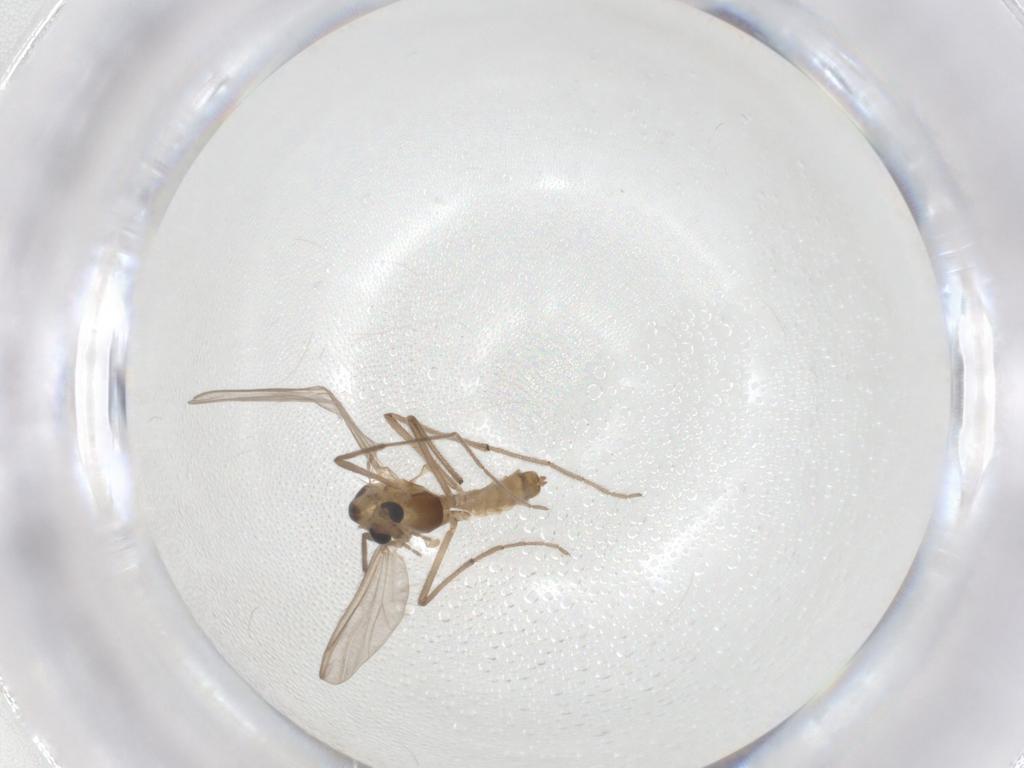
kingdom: Animalia
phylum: Arthropoda
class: Insecta
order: Diptera
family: Chironomidae
